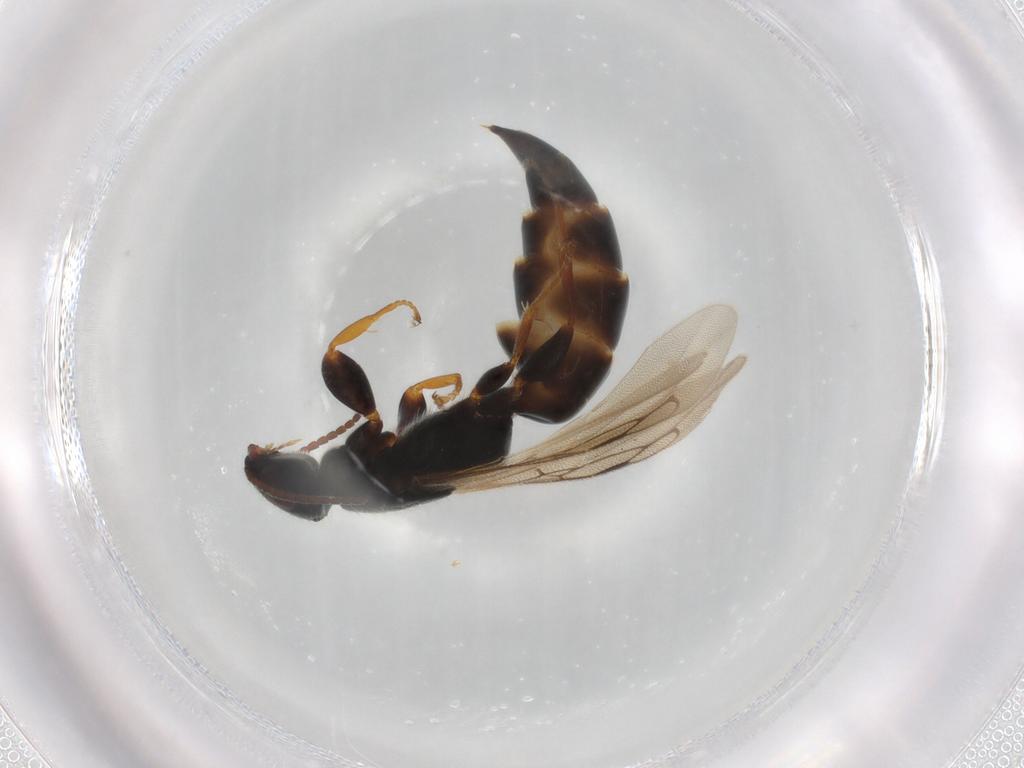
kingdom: Animalia
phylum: Arthropoda
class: Insecta
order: Hymenoptera
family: Bethylidae
